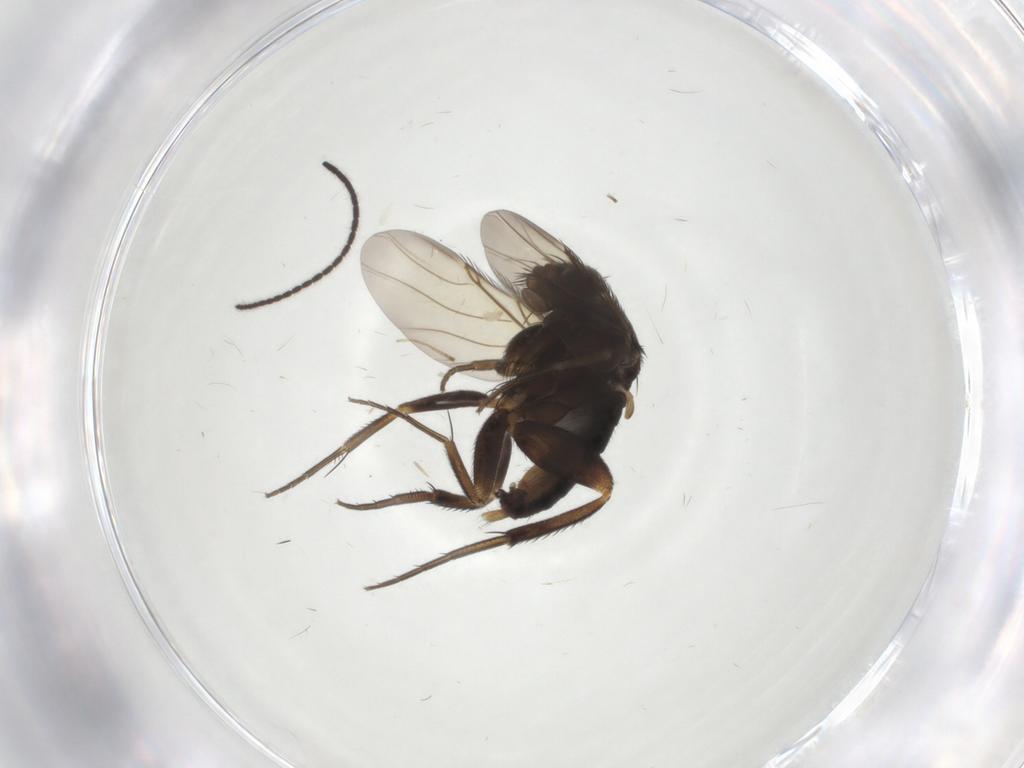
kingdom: Animalia
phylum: Arthropoda
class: Insecta
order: Diptera
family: Phoridae
